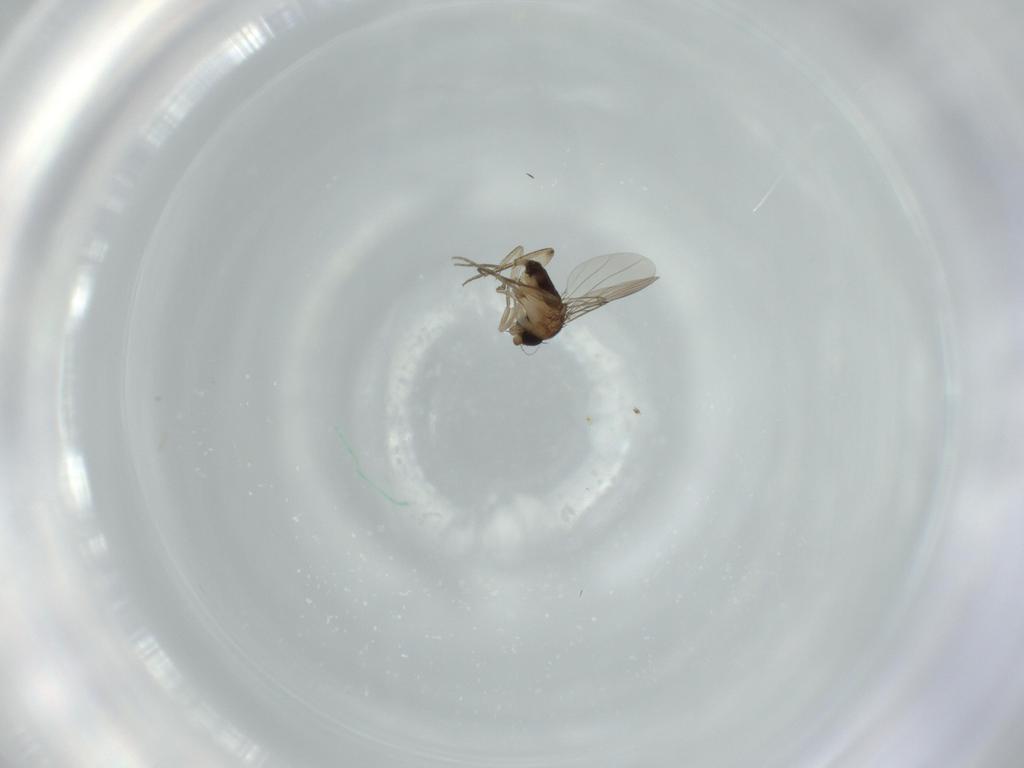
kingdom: Animalia
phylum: Arthropoda
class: Insecta
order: Diptera
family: Phoridae
